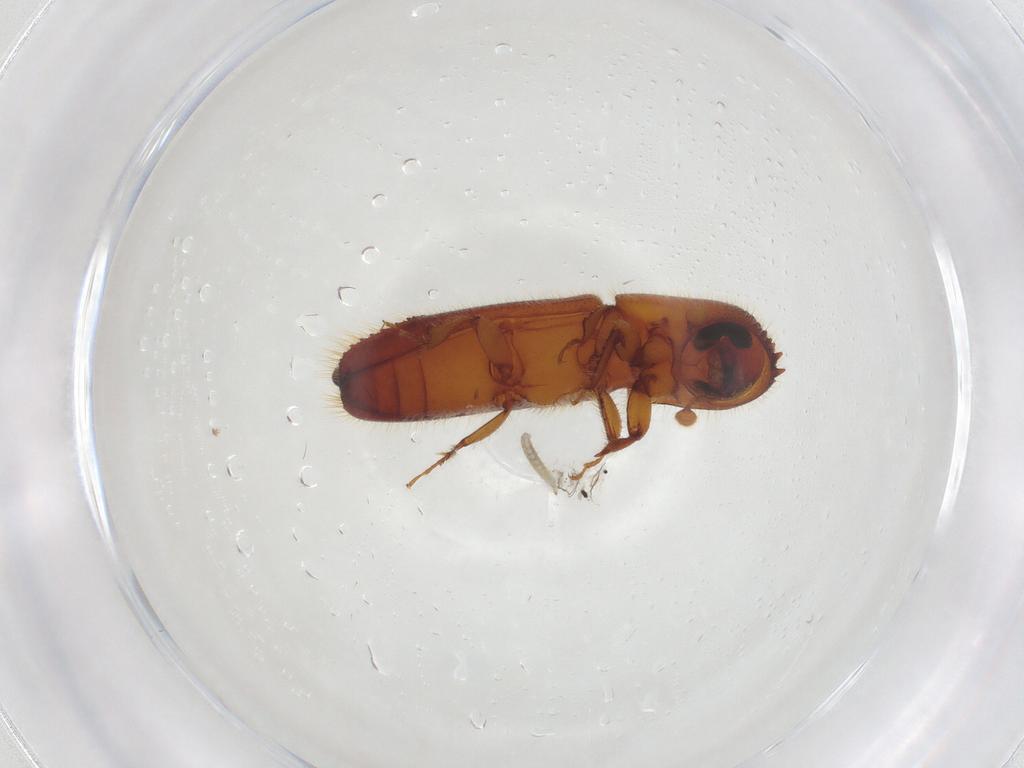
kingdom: Animalia
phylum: Arthropoda
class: Insecta
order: Coleoptera
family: Curculionidae
